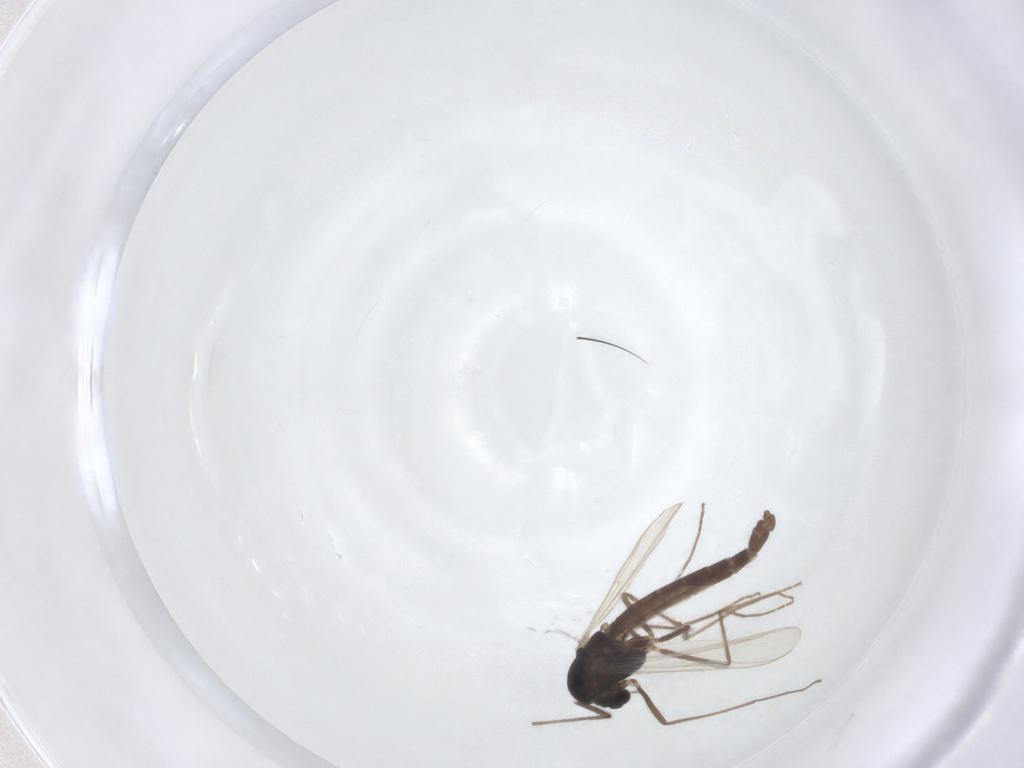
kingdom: Animalia
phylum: Arthropoda
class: Insecta
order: Diptera
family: Chironomidae
